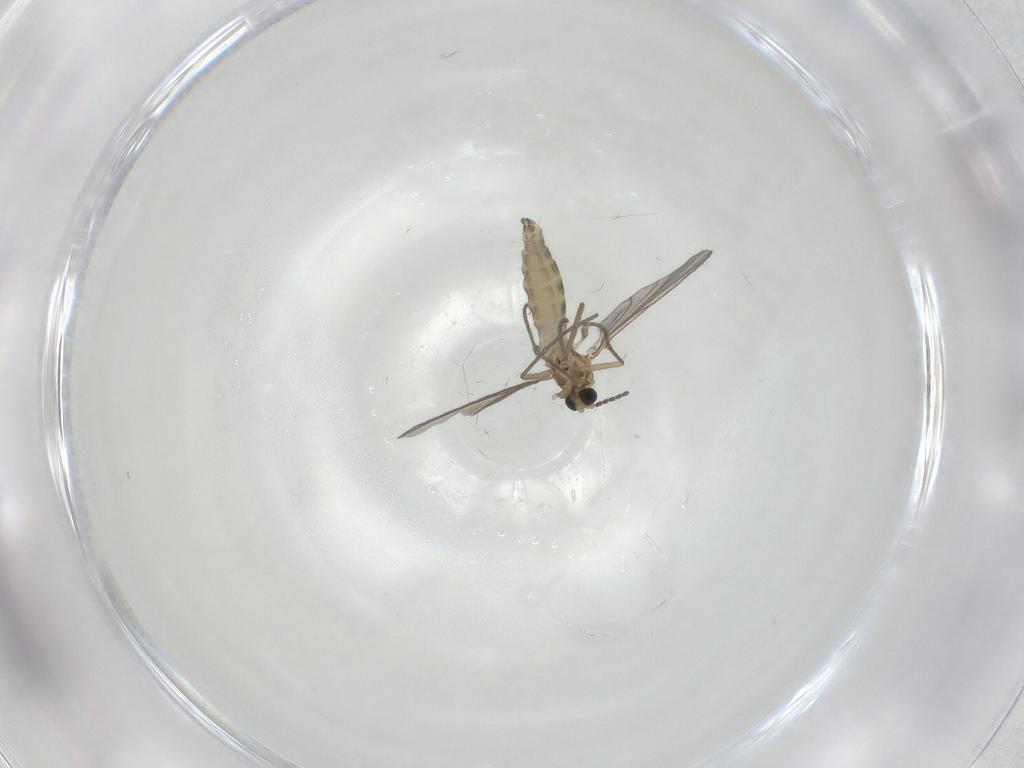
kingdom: Animalia
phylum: Arthropoda
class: Insecta
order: Diptera
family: Sciaridae
